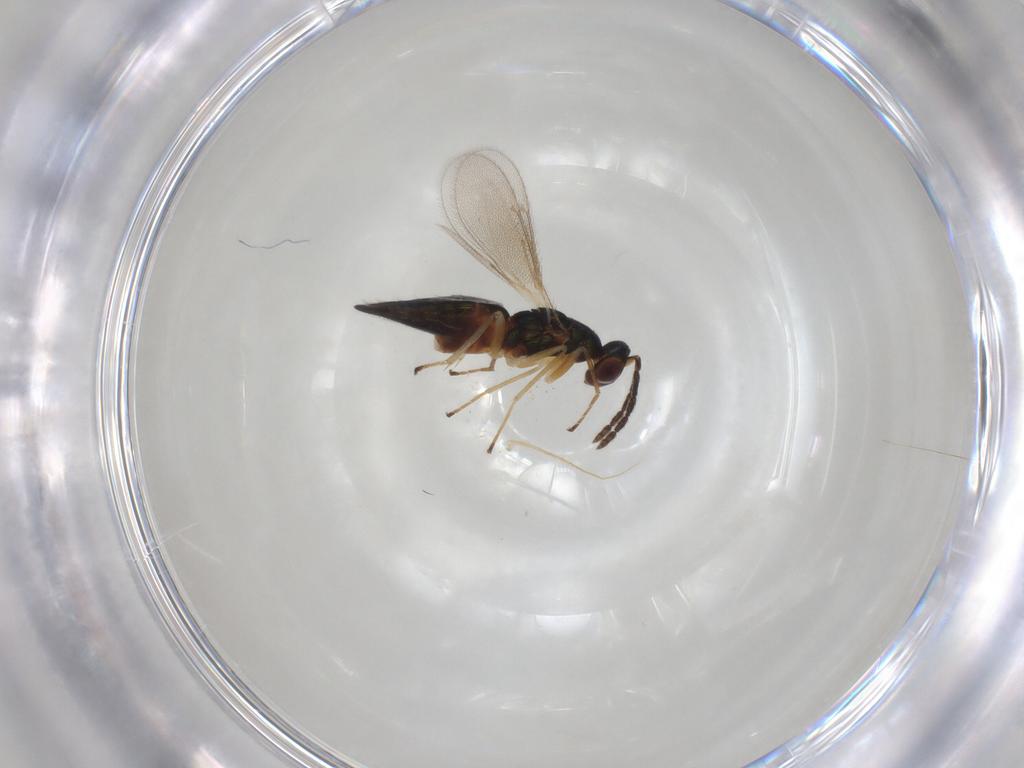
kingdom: Animalia
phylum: Arthropoda
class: Insecta
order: Hymenoptera
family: Eulophidae
